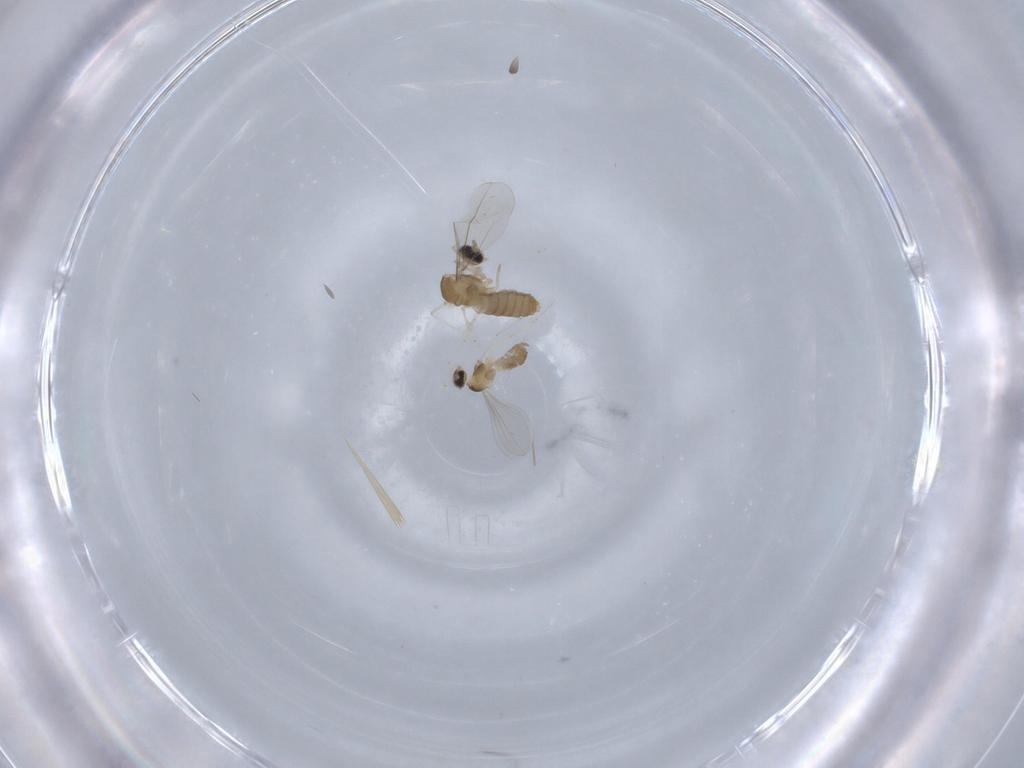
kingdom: Animalia
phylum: Arthropoda
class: Insecta
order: Diptera
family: Cecidomyiidae
